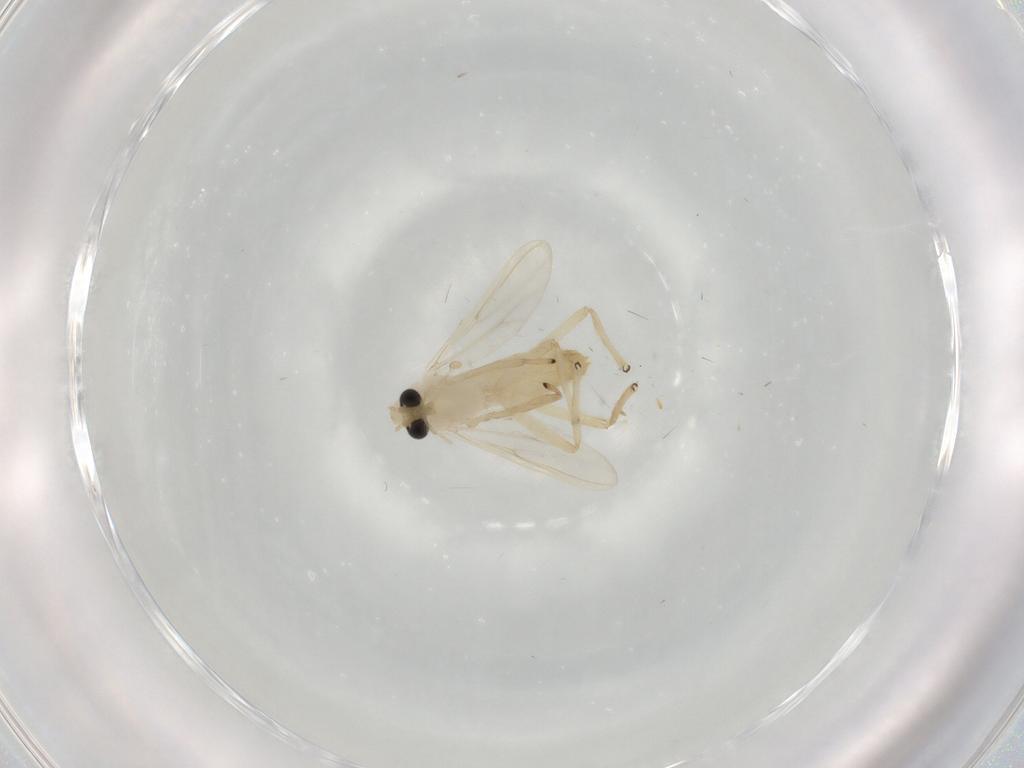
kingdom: Animalia
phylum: Arthropoda
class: Insecta
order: Diptera
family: Chironomidae
